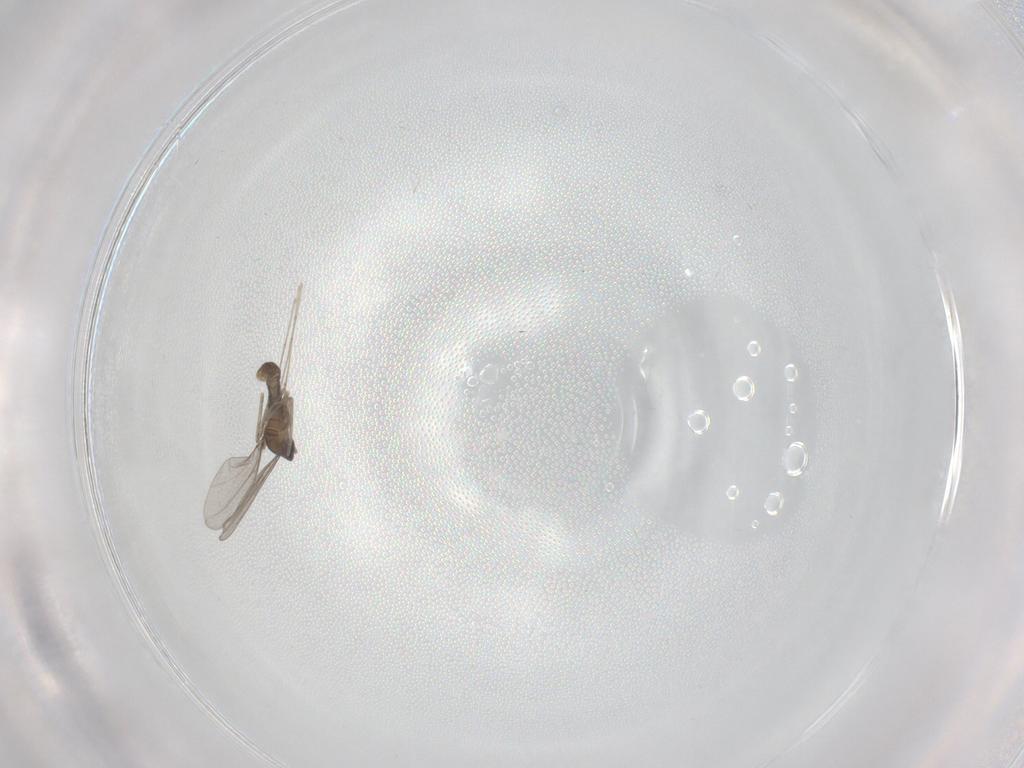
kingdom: Animalia
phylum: Arthropoda
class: Insecta
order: Diptera
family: Cecidomyiidae
